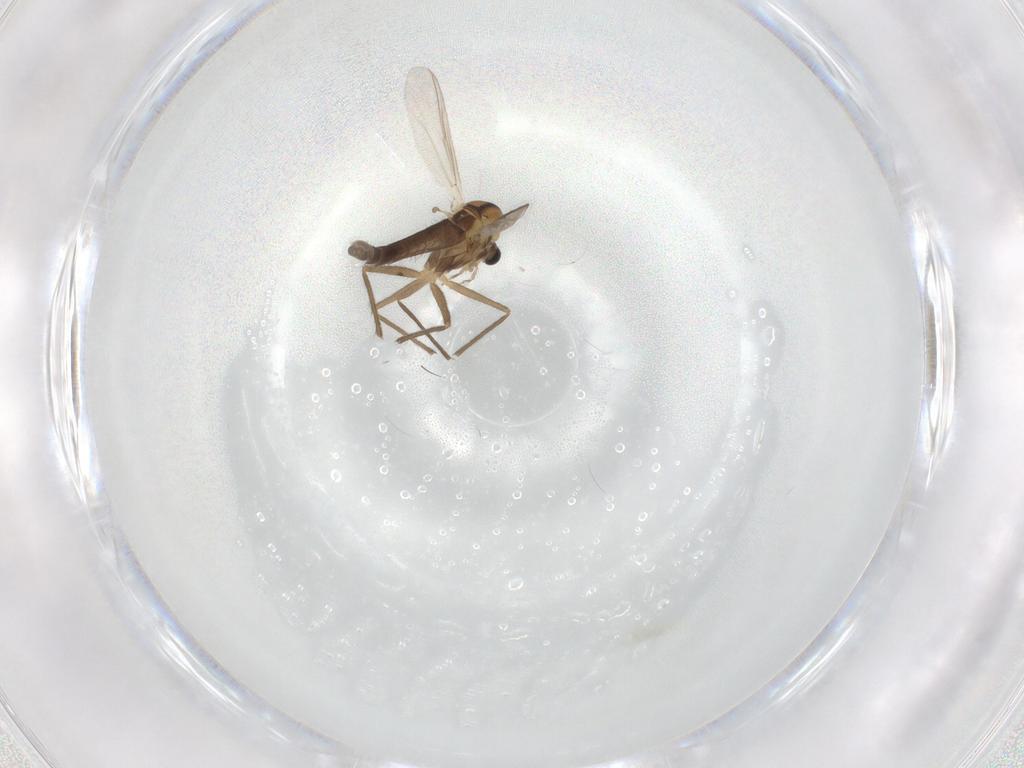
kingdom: Animalia
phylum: Arthropoda
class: Insecta
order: Diptera
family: Chironomidae
